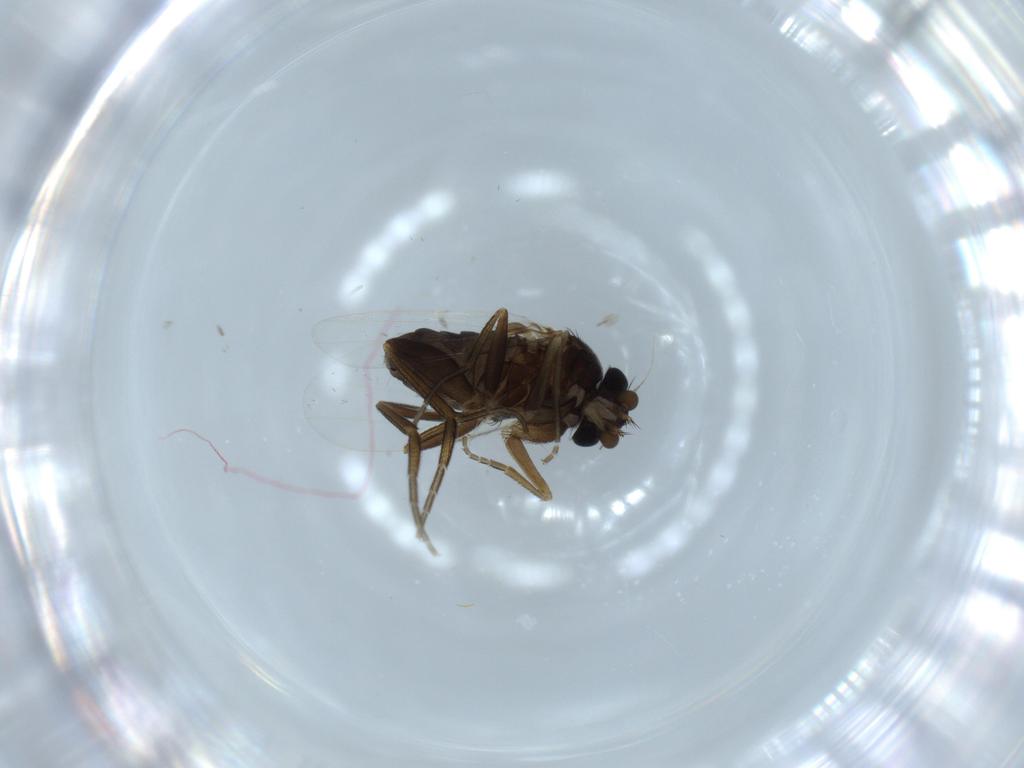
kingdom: Animalia
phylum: Arthropoda
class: Insecta
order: Diptera
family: Phoridae
